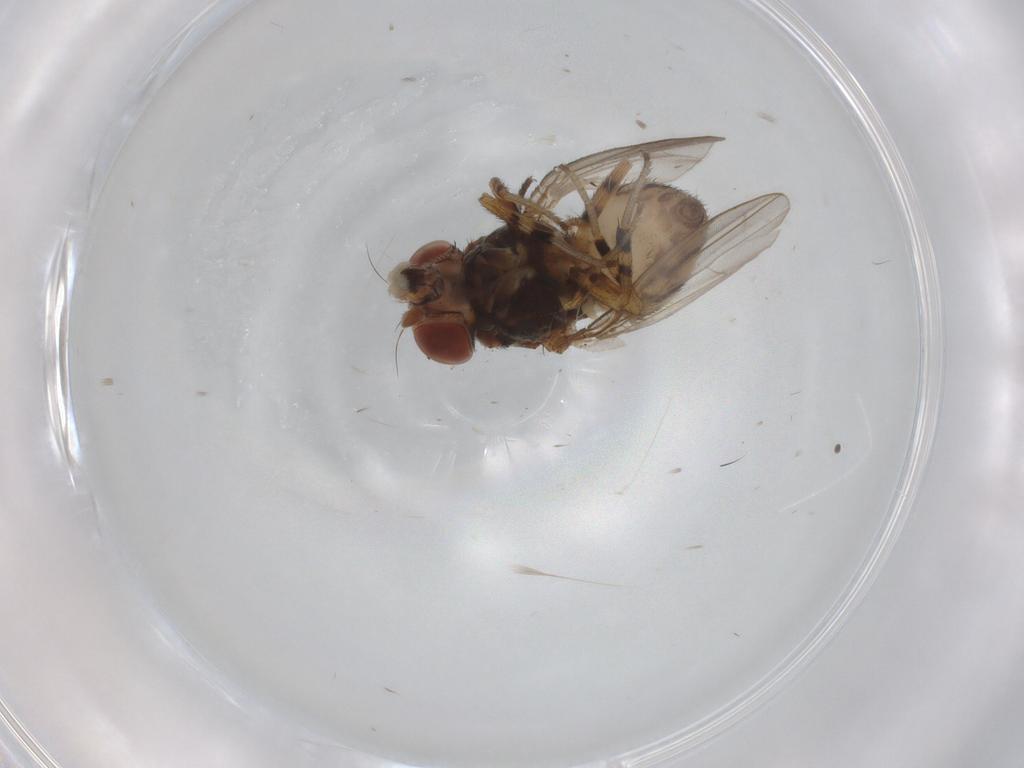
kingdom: Animalia
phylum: Arthropoda
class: Insecta
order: Diptera
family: Drosophilidae
